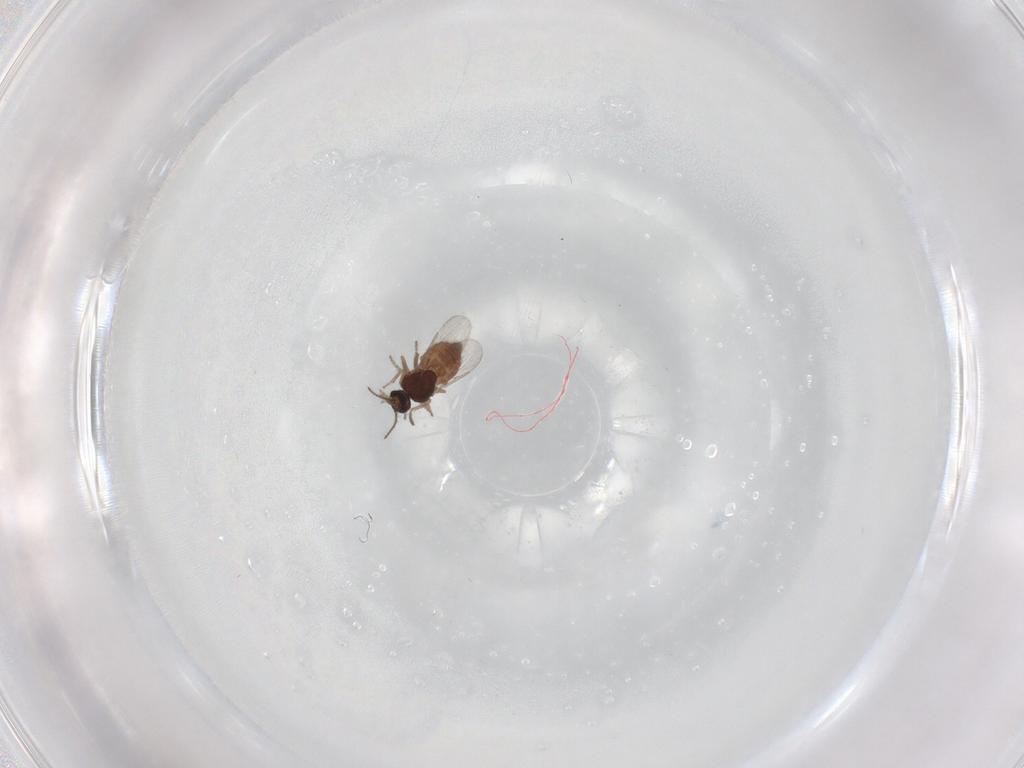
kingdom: Animalia
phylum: Arthropoda
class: Insecta
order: Diptera
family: Ceratopogonidae
